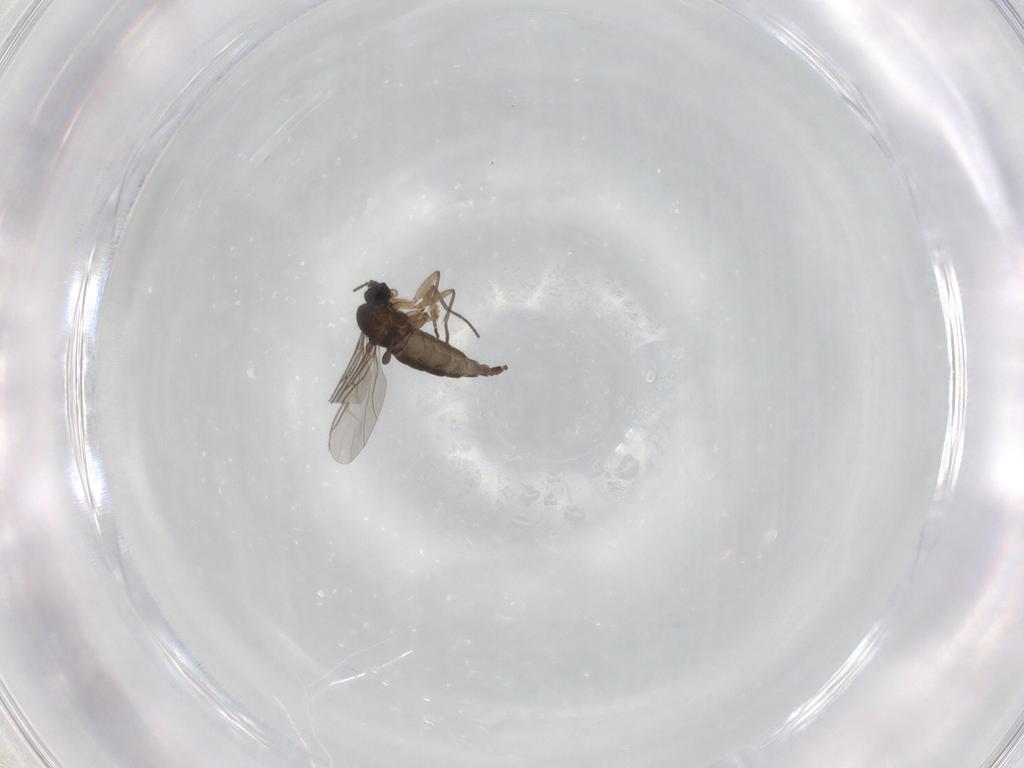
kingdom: Animalia
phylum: Arthropoda
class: Insecta
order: Diptera
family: Sciaridae
